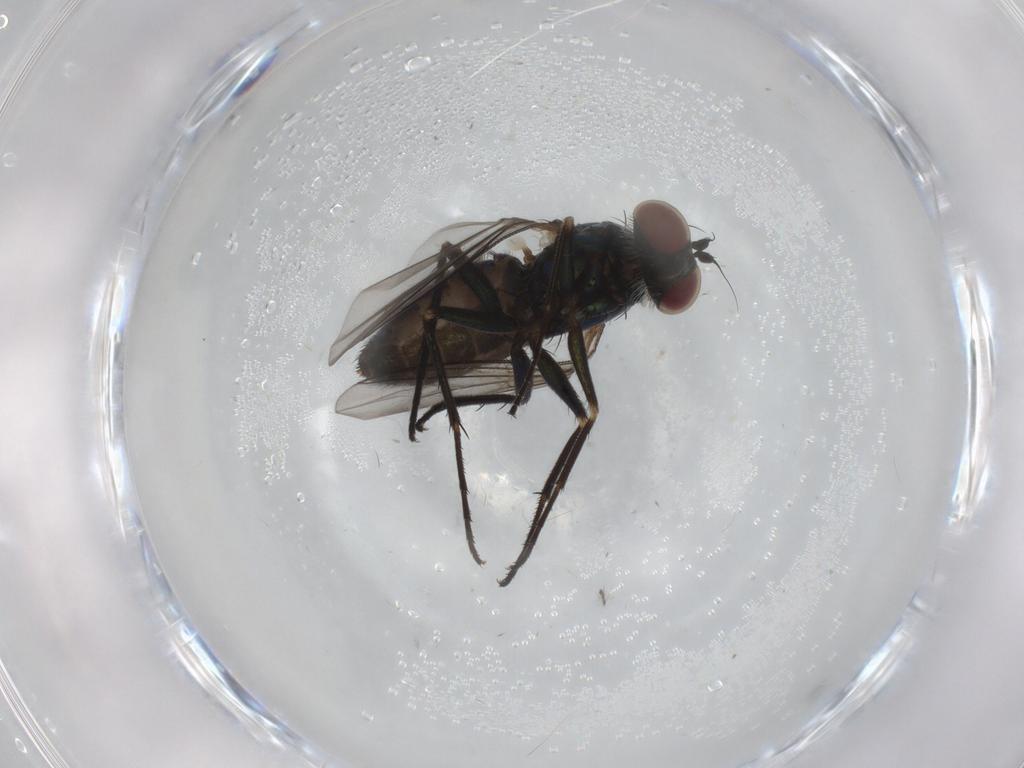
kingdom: Animalia
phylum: Arthropoda
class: Insecta
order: Diptera
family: Dolichopodidae
